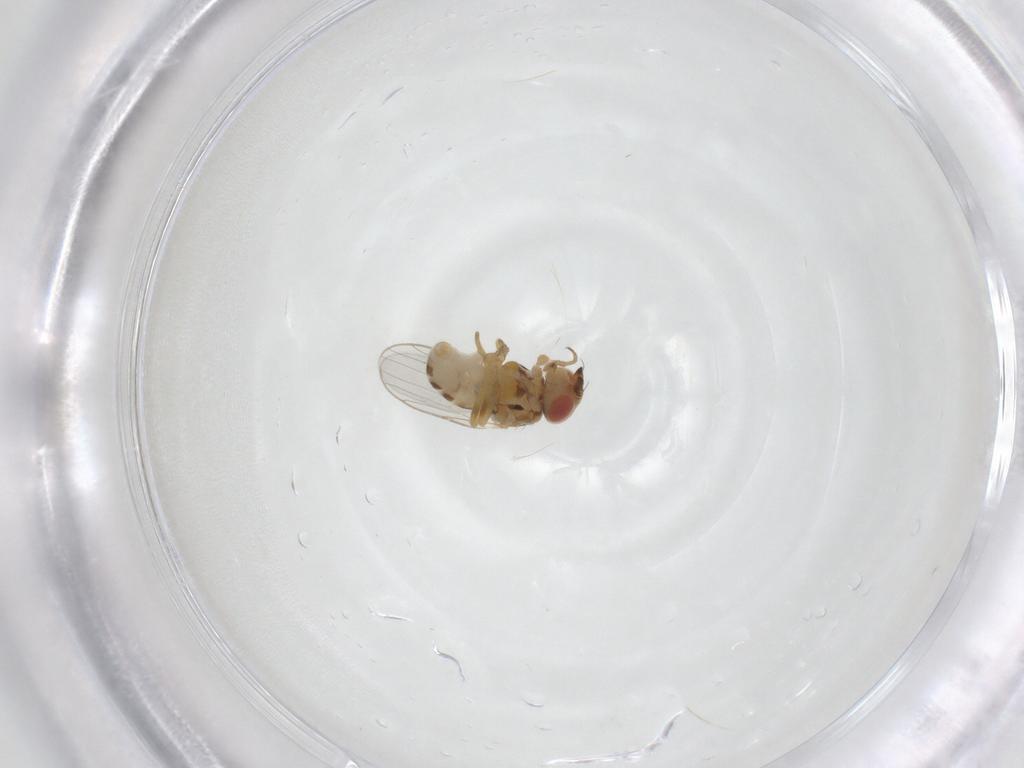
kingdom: Animalia
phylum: Arthropoda
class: Insecta
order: Diptera
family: Chloropidae
